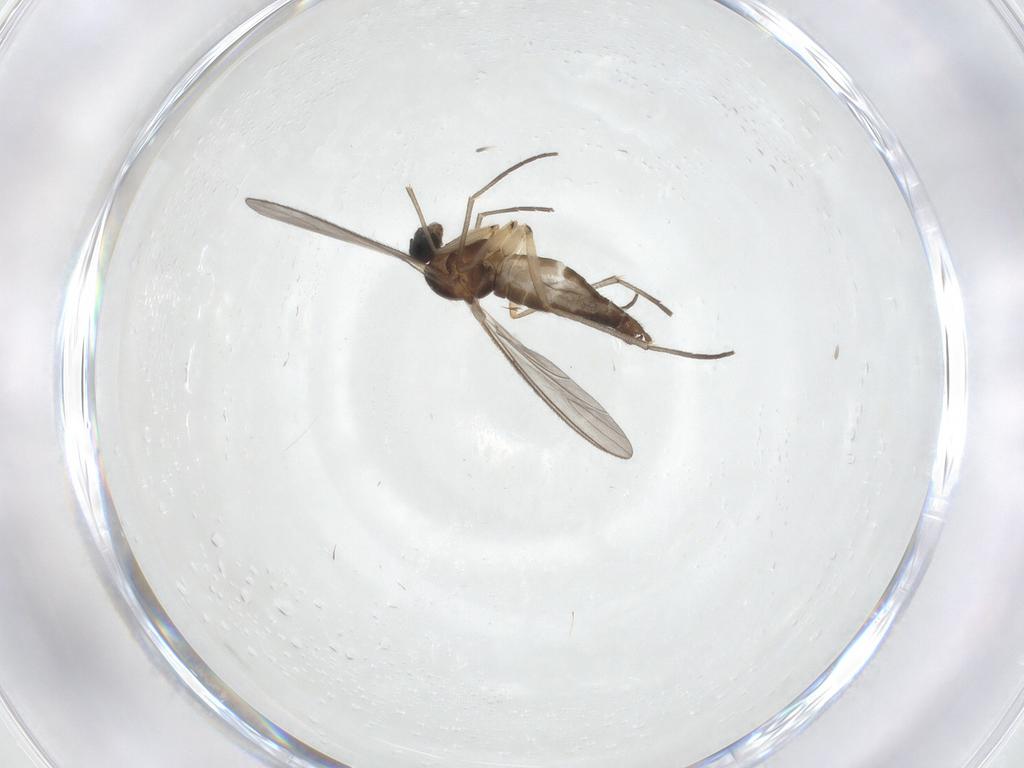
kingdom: Animalia
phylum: Arthropoda
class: Insecta
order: Diptera
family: Sciaridae
